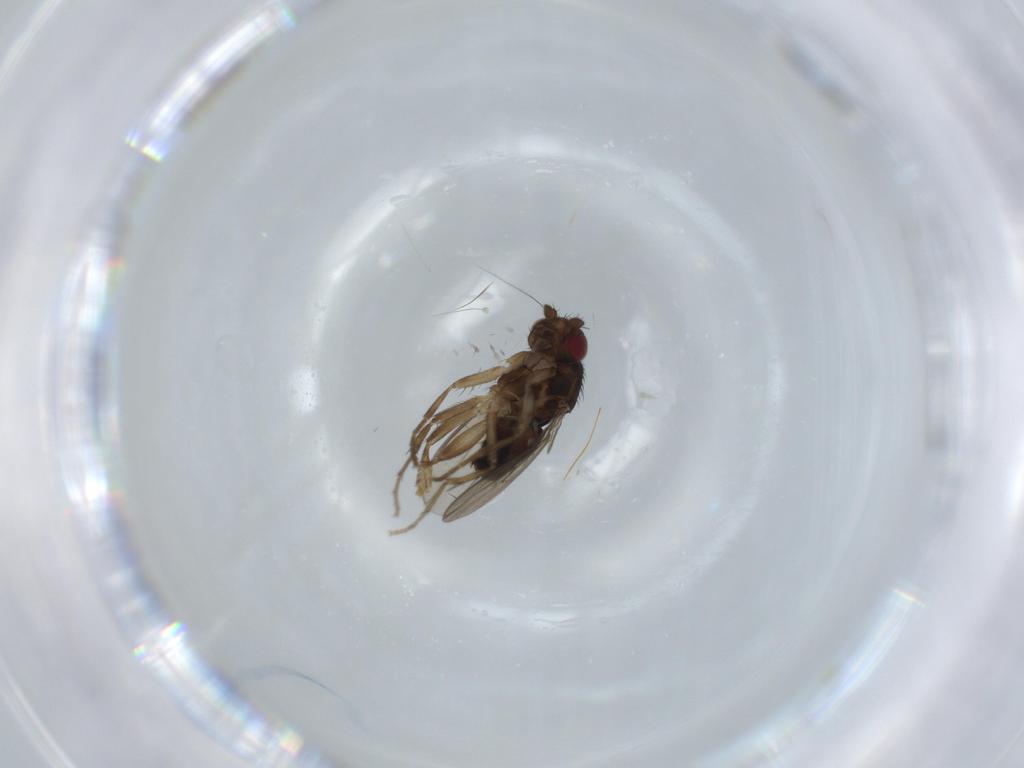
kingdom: Animalia
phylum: Arthropoda
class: Insecta
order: Diptera
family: Sphaeroceridae
